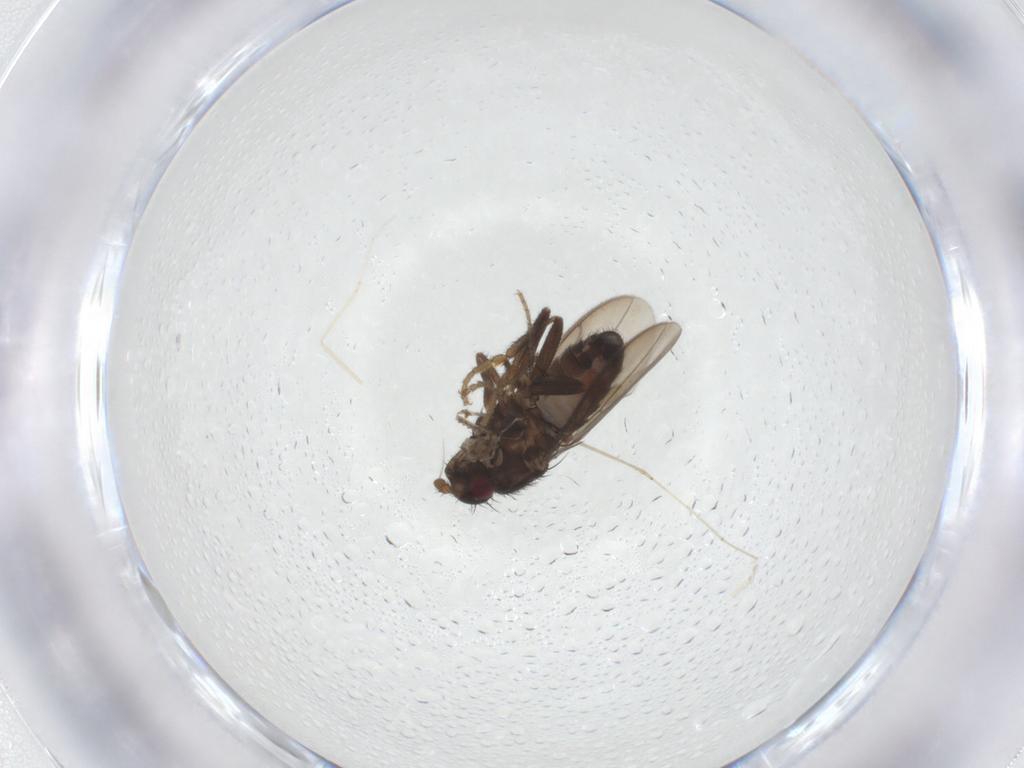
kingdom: Animalia
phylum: Arthropoda
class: Insecta
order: Diptera
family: Sphaeroceridae
